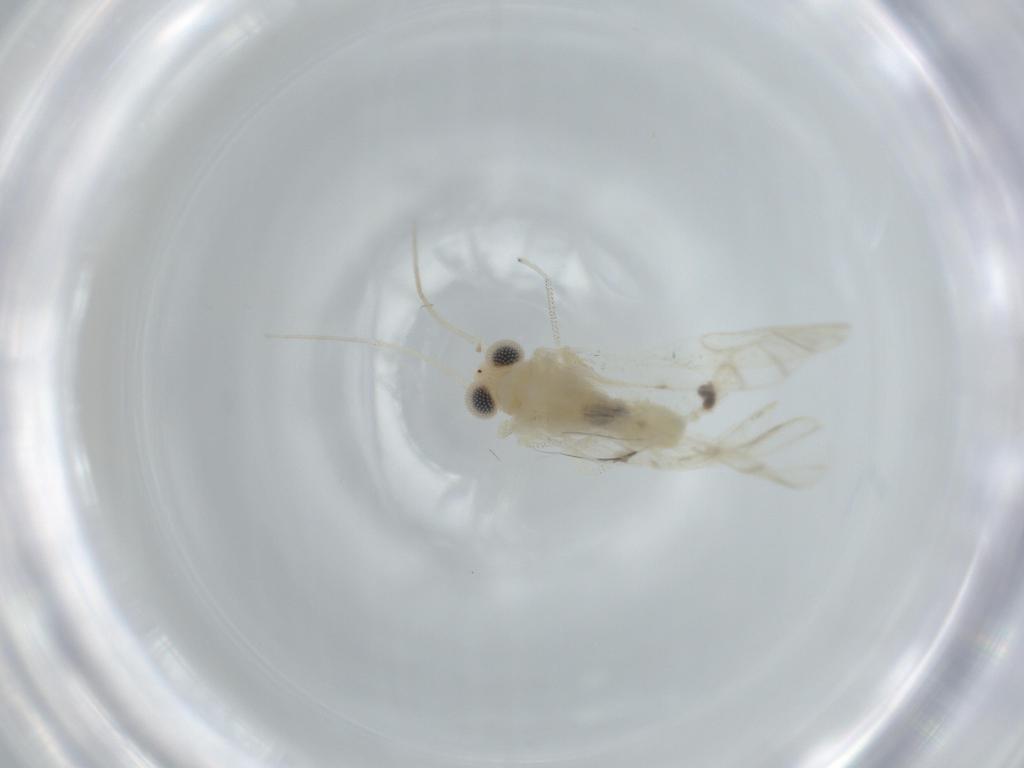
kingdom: Animalia
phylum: Arthropoda
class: Insecta
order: Psocodea
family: Caeciliusidae
